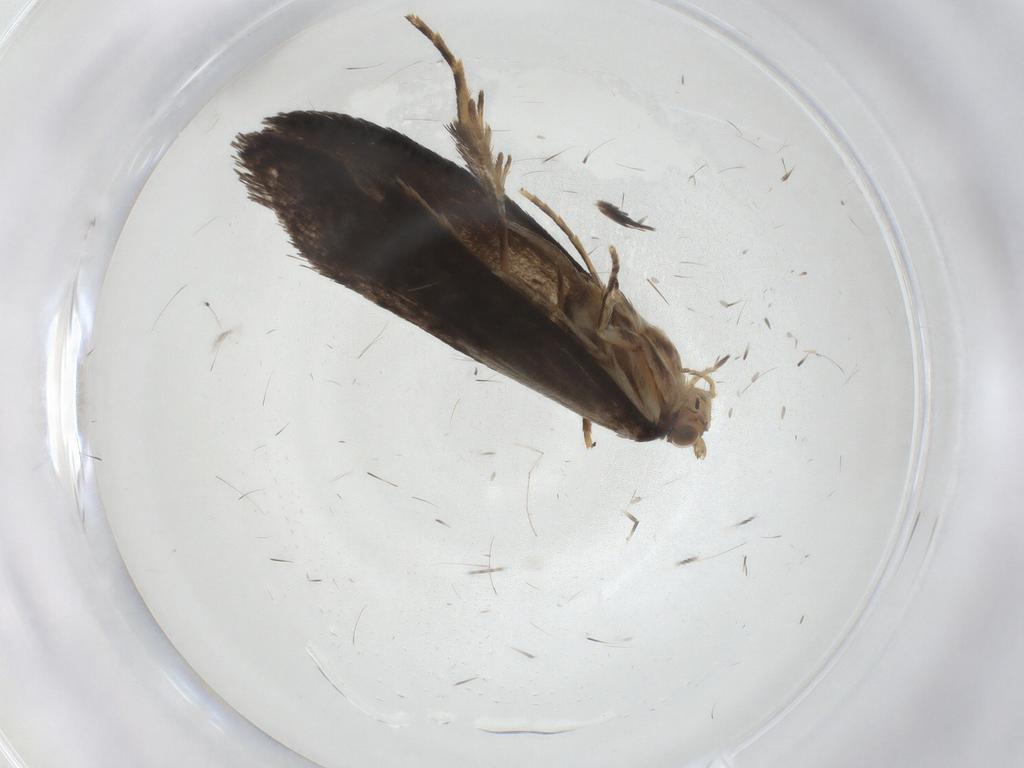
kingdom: Animalia
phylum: Arthropoda
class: Insecta
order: Lepidoptera
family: Tineidae
